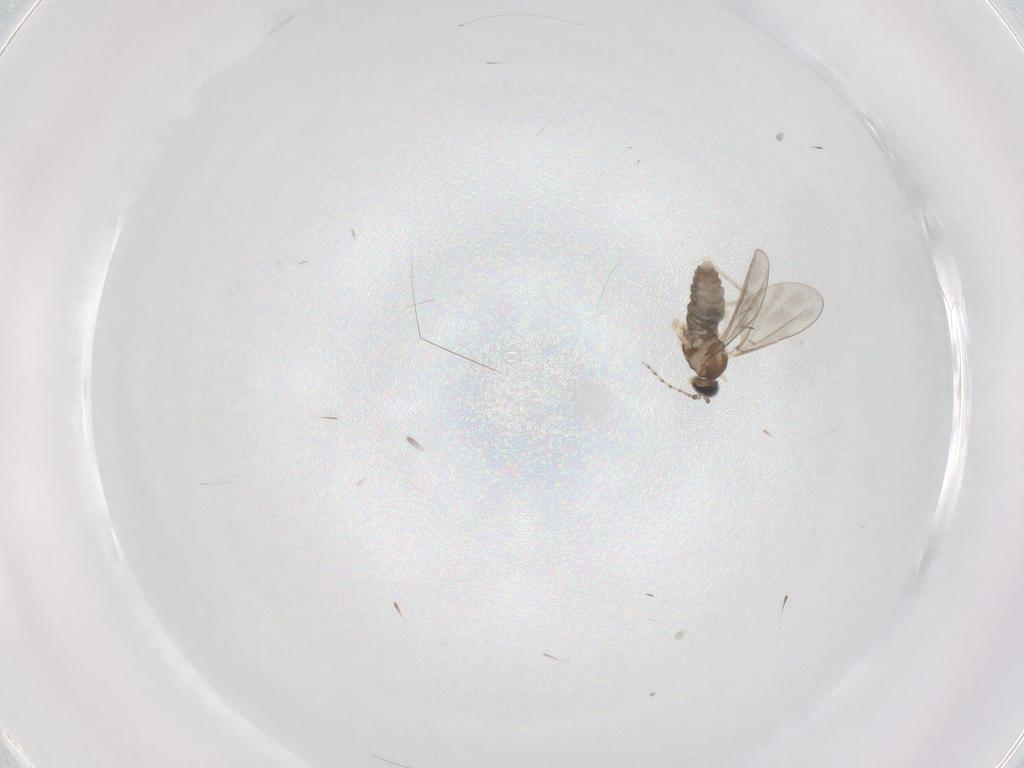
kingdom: Animalia
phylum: Arthropoda
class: Insecta
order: Diptera
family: Cecidomyiidae
